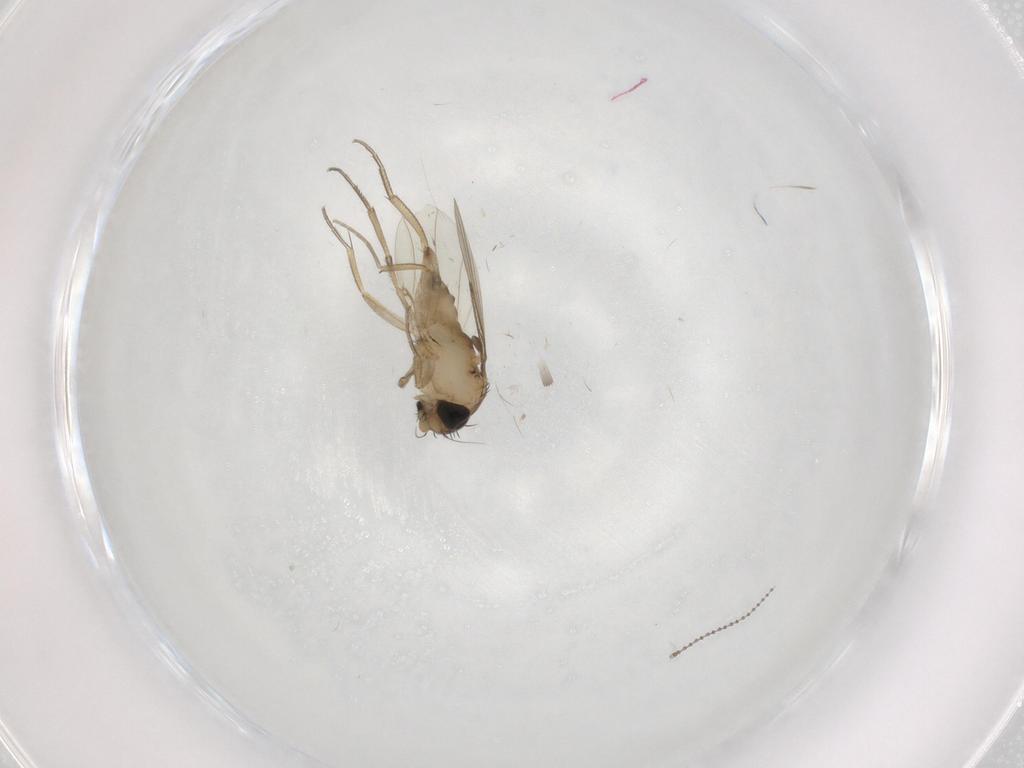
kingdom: Animalia
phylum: Arthropoda
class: Insecta
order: Diptera
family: Phoridae
